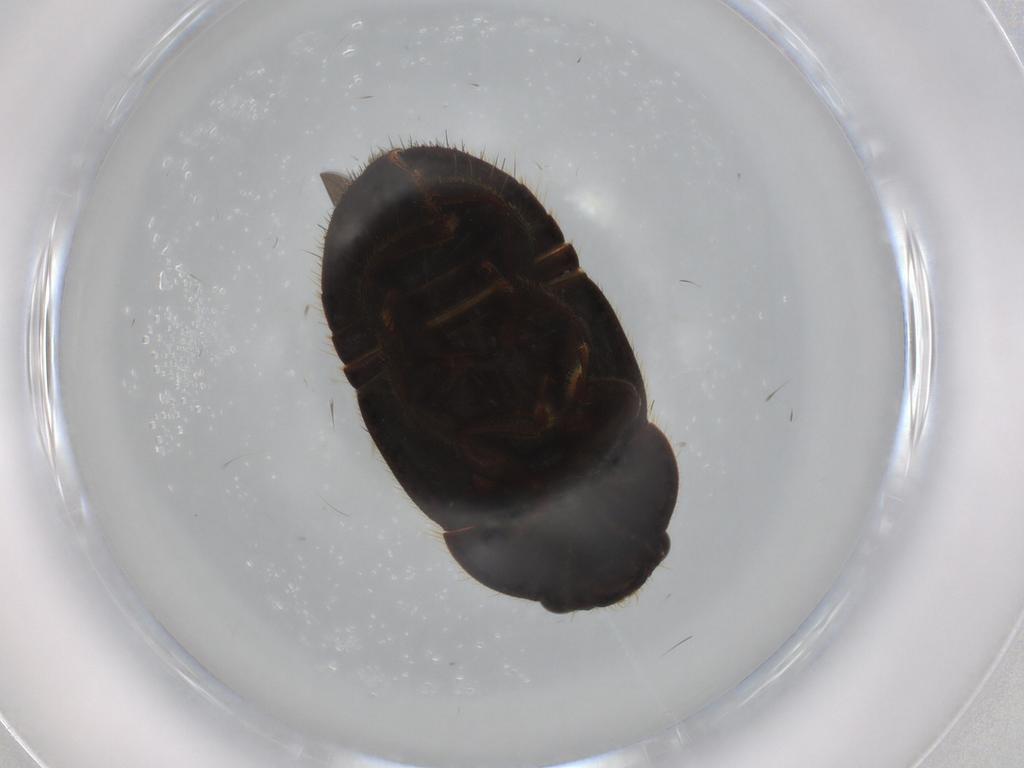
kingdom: Animalia
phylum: Arthropoda
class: Insecta
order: Coleoptera
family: Nitidulidae
